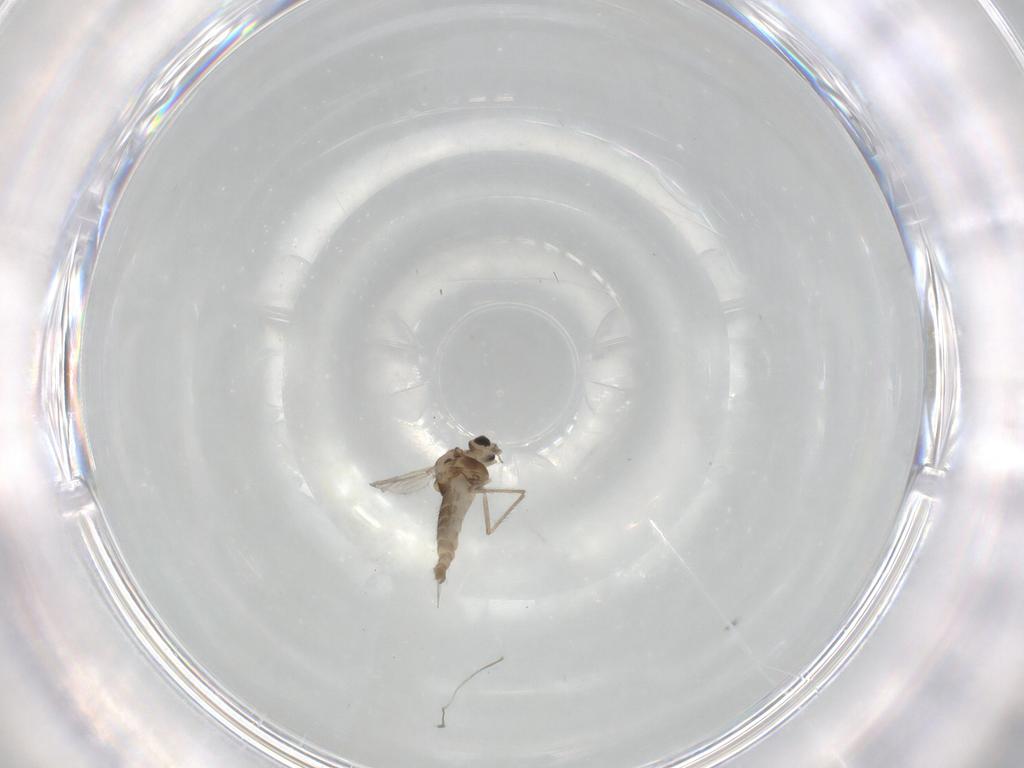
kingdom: Animalia
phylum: Arthropoda
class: Insecta
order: Diptera
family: Chironomidae
